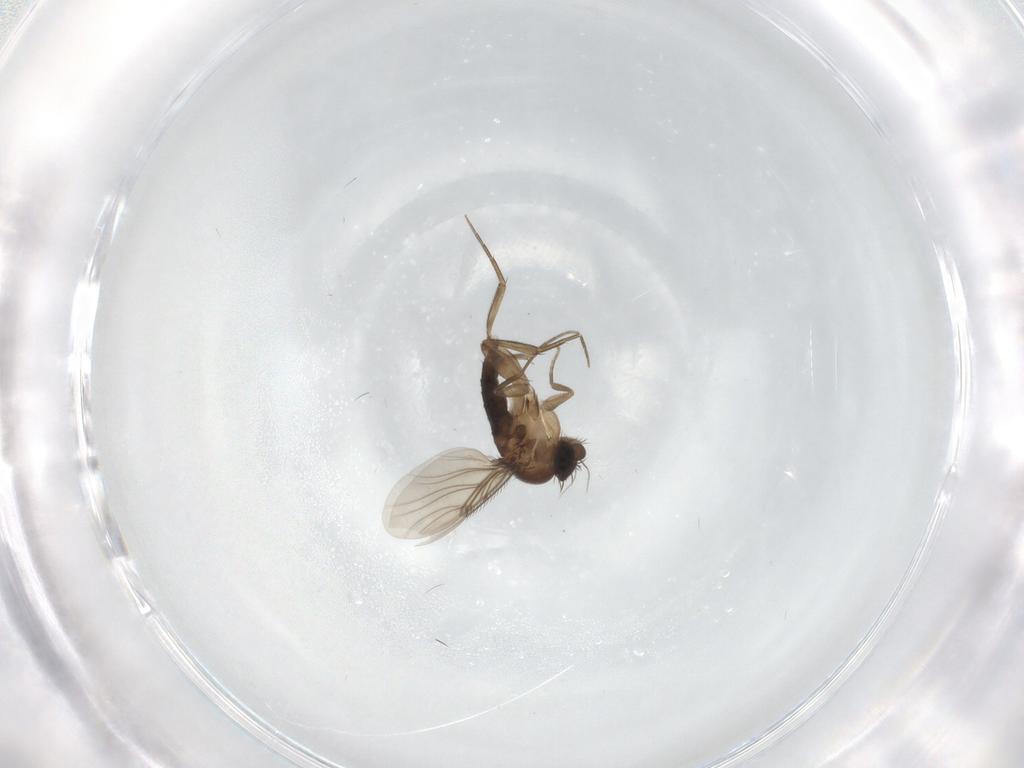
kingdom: Animalia
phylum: Arthropoda
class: Insecta
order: Diptera
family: Phoridae
